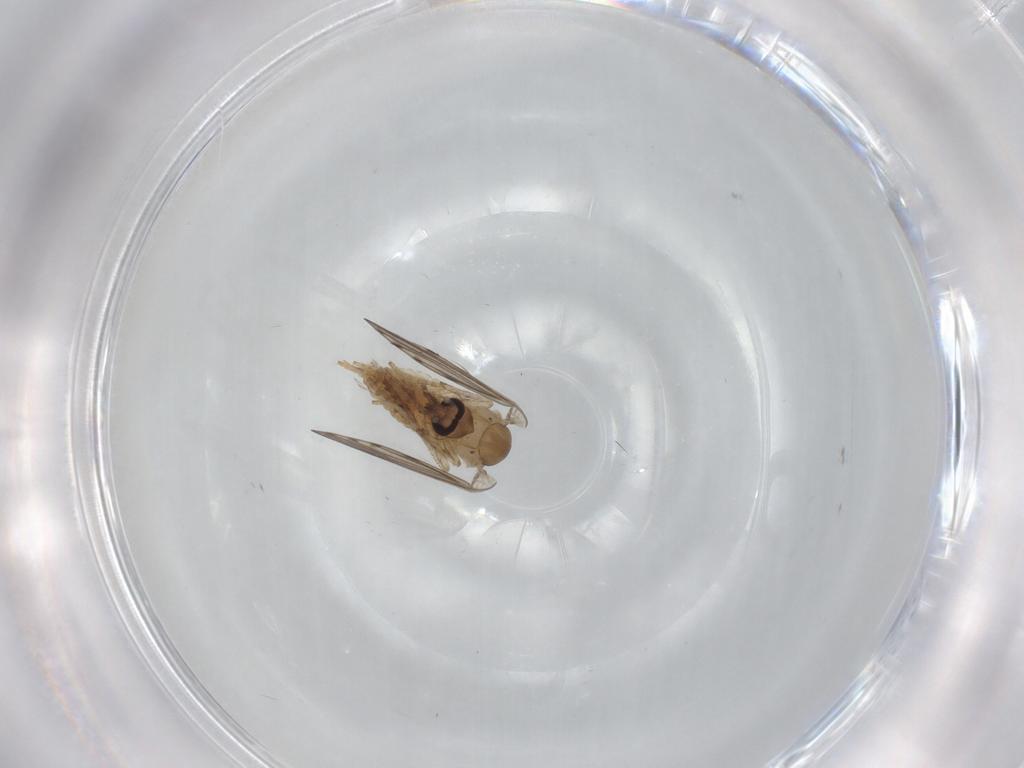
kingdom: Animalia
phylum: Arthropoda
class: Insecta
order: Diptera
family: Psychodidae
